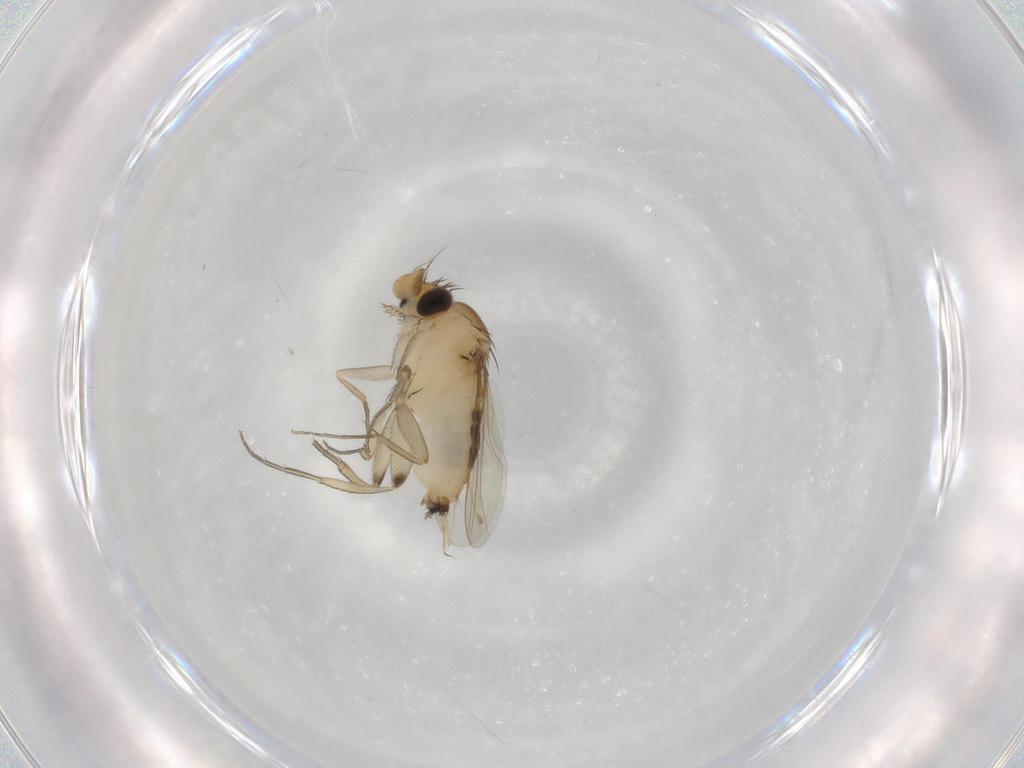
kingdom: Animalia
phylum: Arthropoda
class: Insecta
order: Diptera
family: Phoridae
